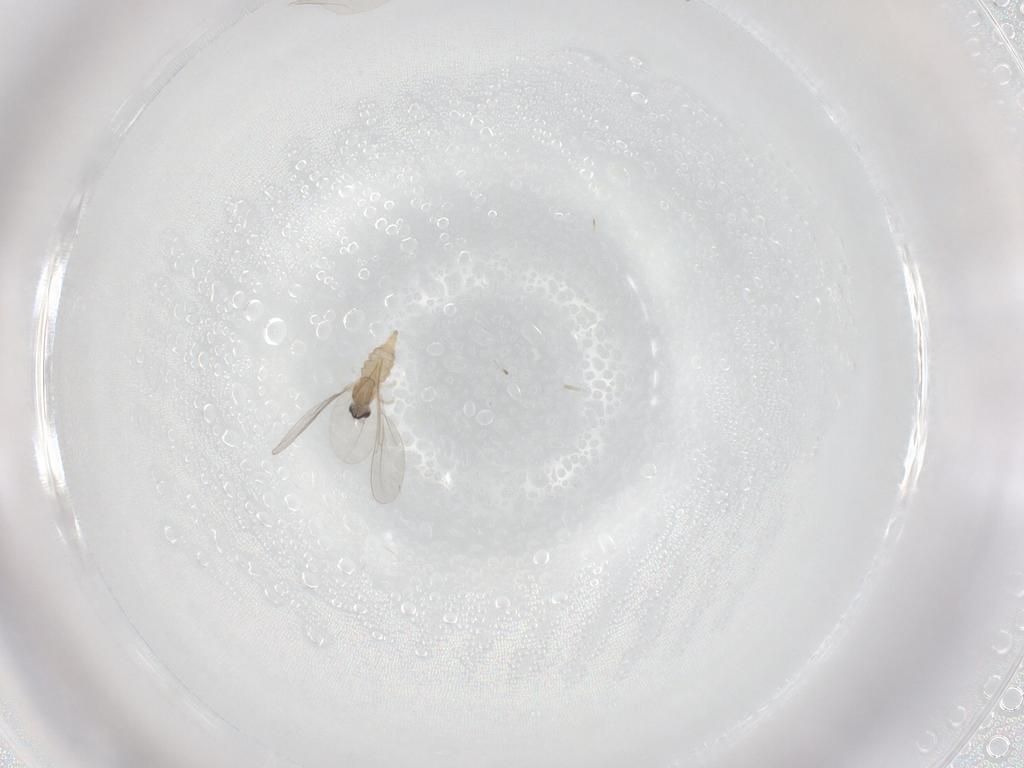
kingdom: Animalia
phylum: Arthropoda
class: Insecta
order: Diptera
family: Cecidomyiidae
